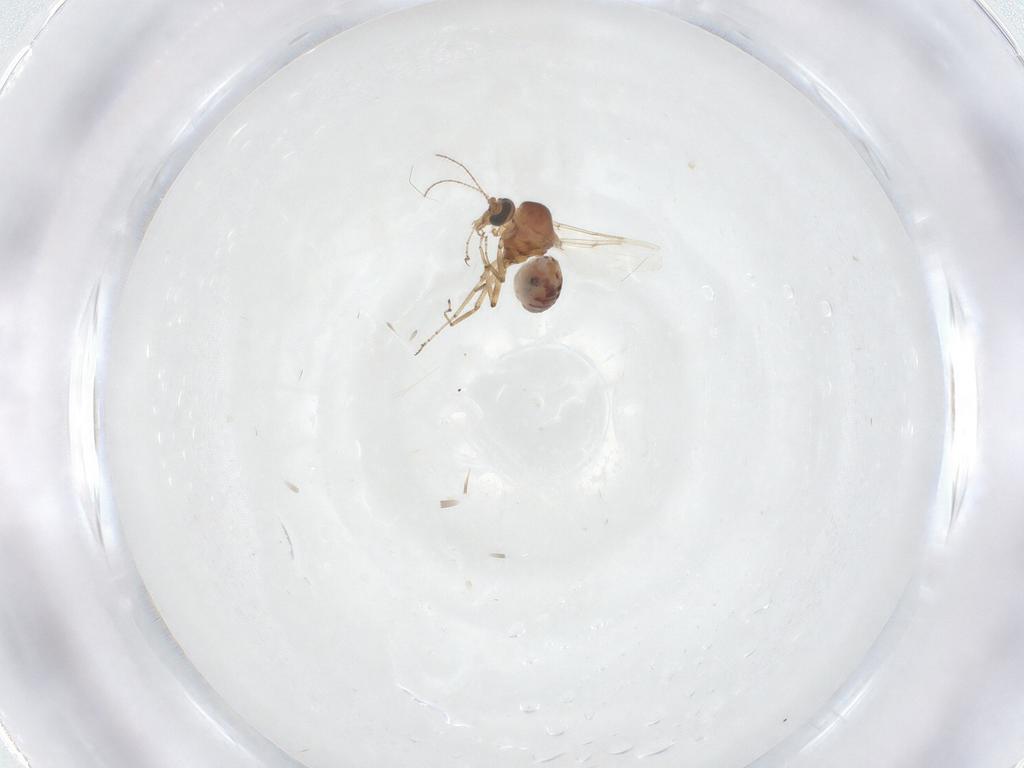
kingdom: Animalia
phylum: Arthropoda
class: Insecta
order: Diptera
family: Ceratopogonidae
